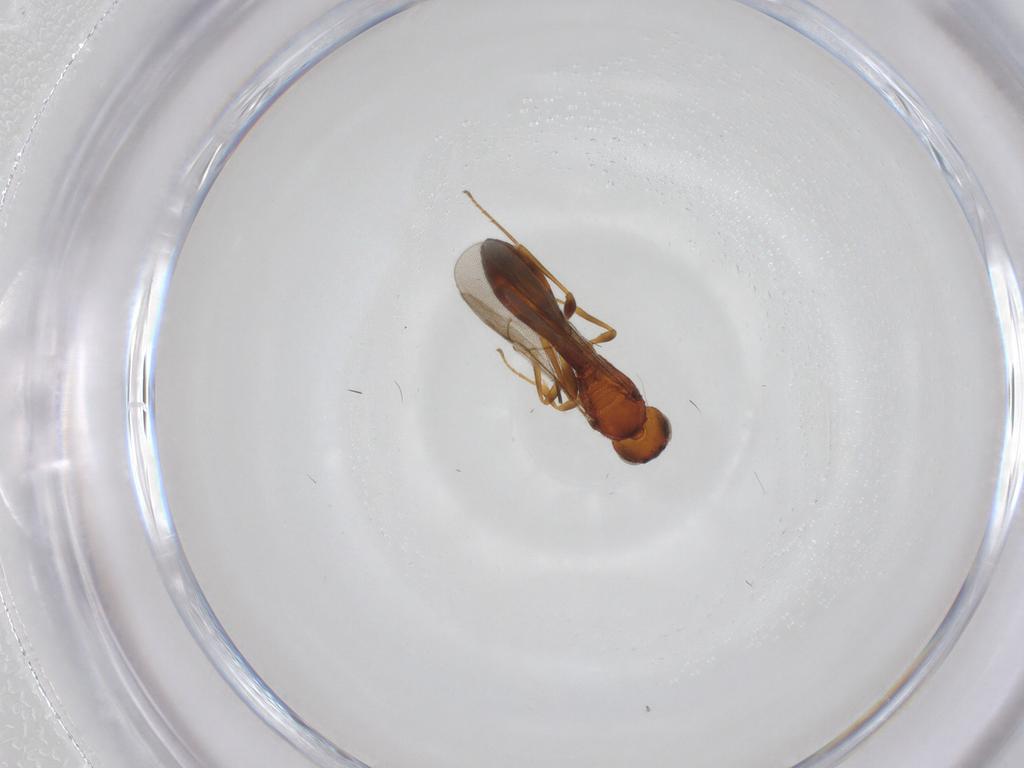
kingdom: Animalia
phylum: Arthropoda
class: Insecta
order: Hymenoptera
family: Scelionidae
